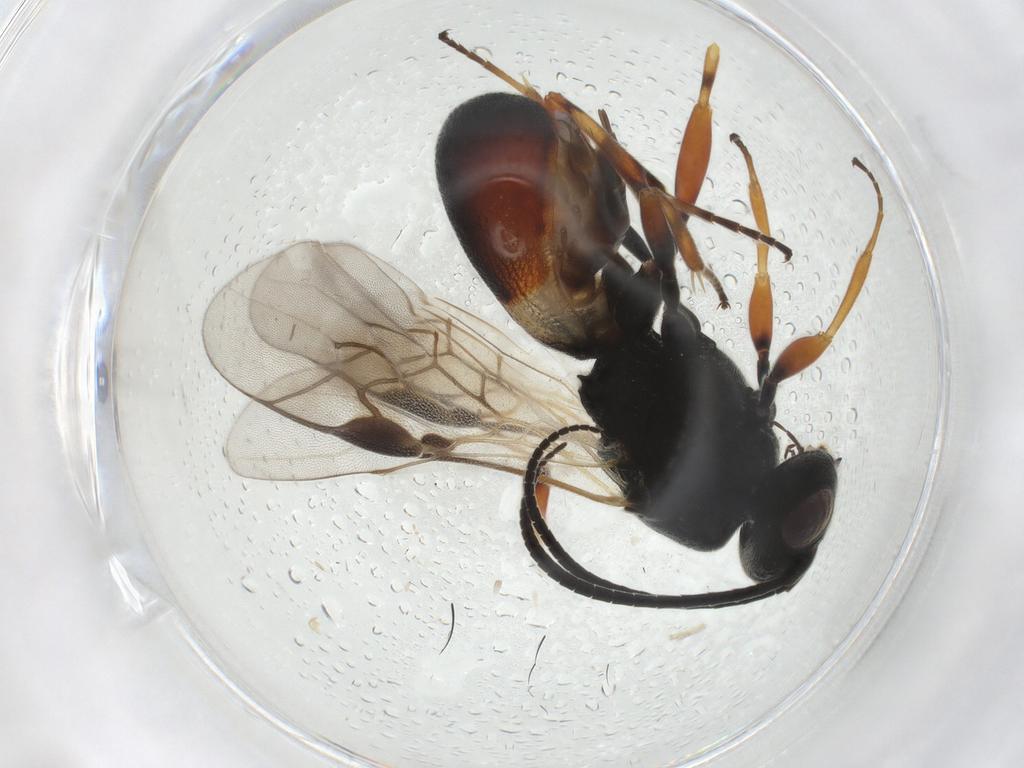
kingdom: Animalia
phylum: Arthropoda
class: Insecta
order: Hymenoptera
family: Braconidae
